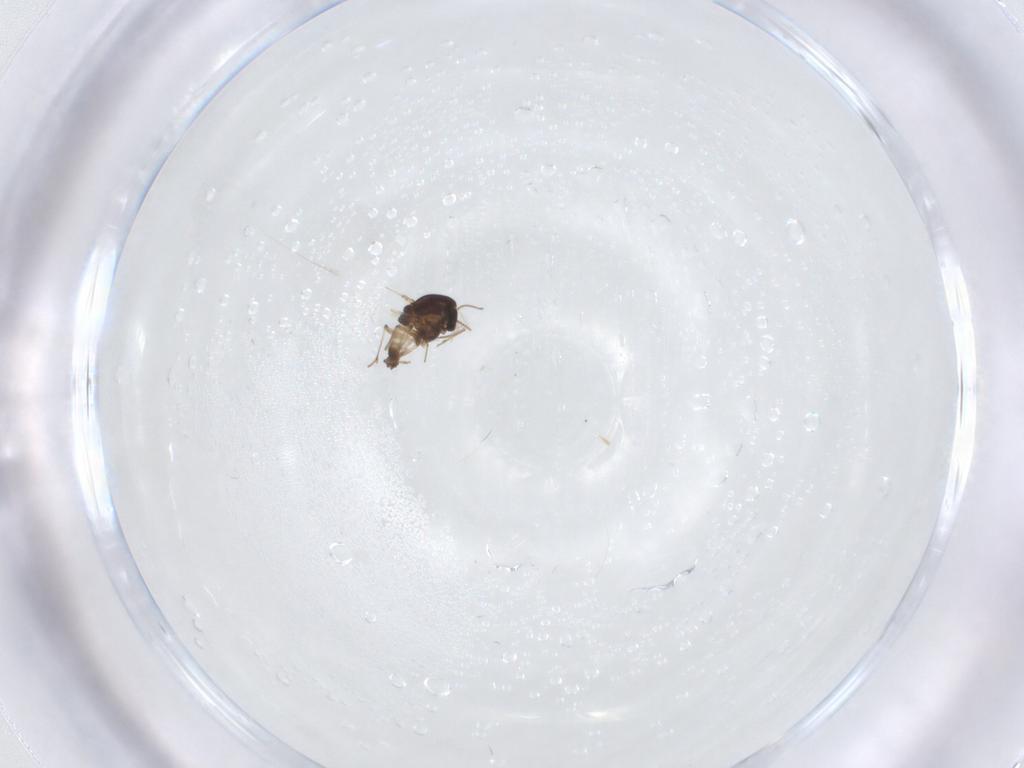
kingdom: Animalia
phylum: Arthropoda
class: Insecta
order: Diptera
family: Chironomidae
